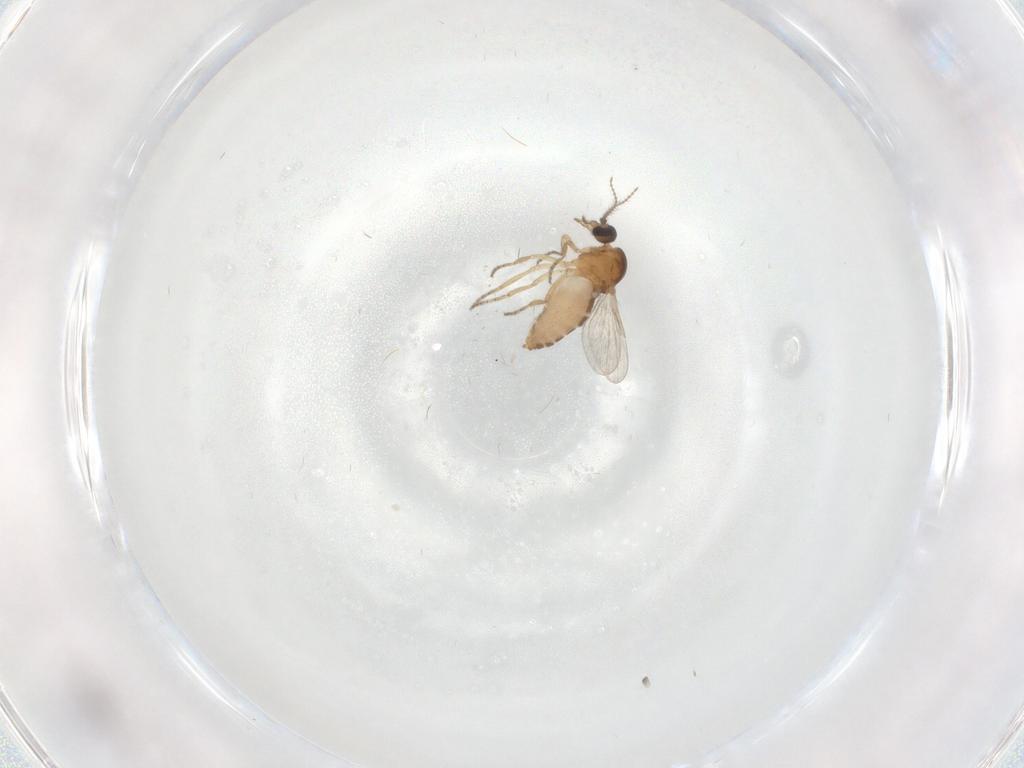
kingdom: Animalia
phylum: Arthropoda
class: Insecta
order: Diptera
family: Ceratopogonidae
